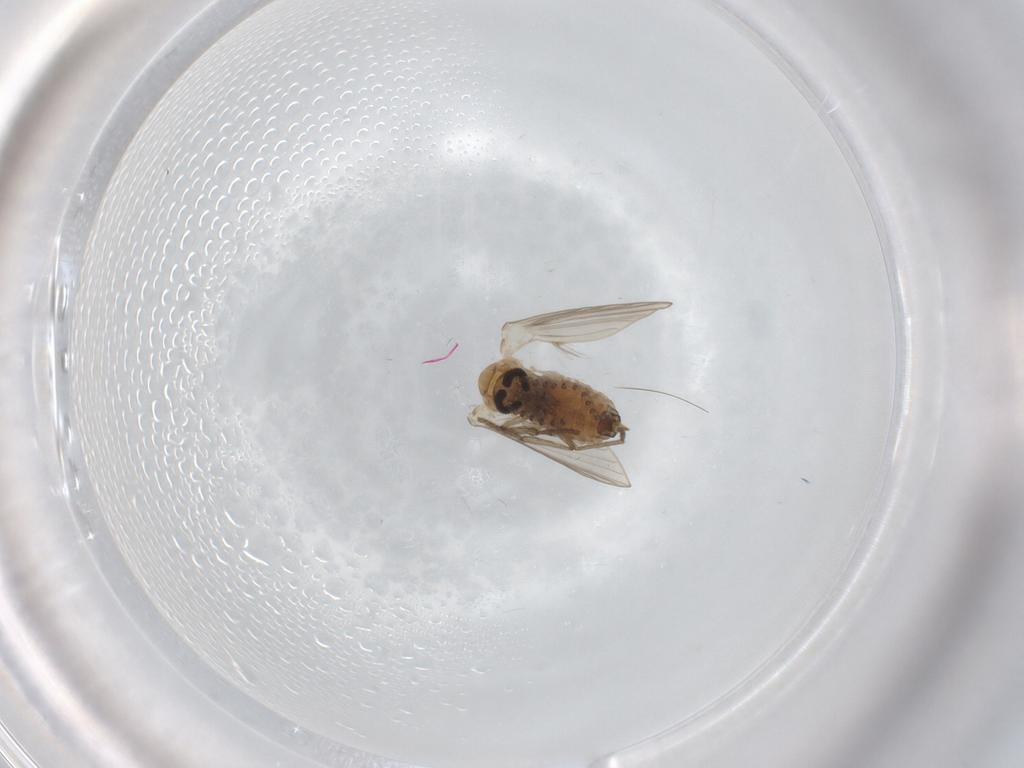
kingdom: Animalia
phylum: Arthropoda
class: Insecta
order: Diptera
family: Psychodidae
